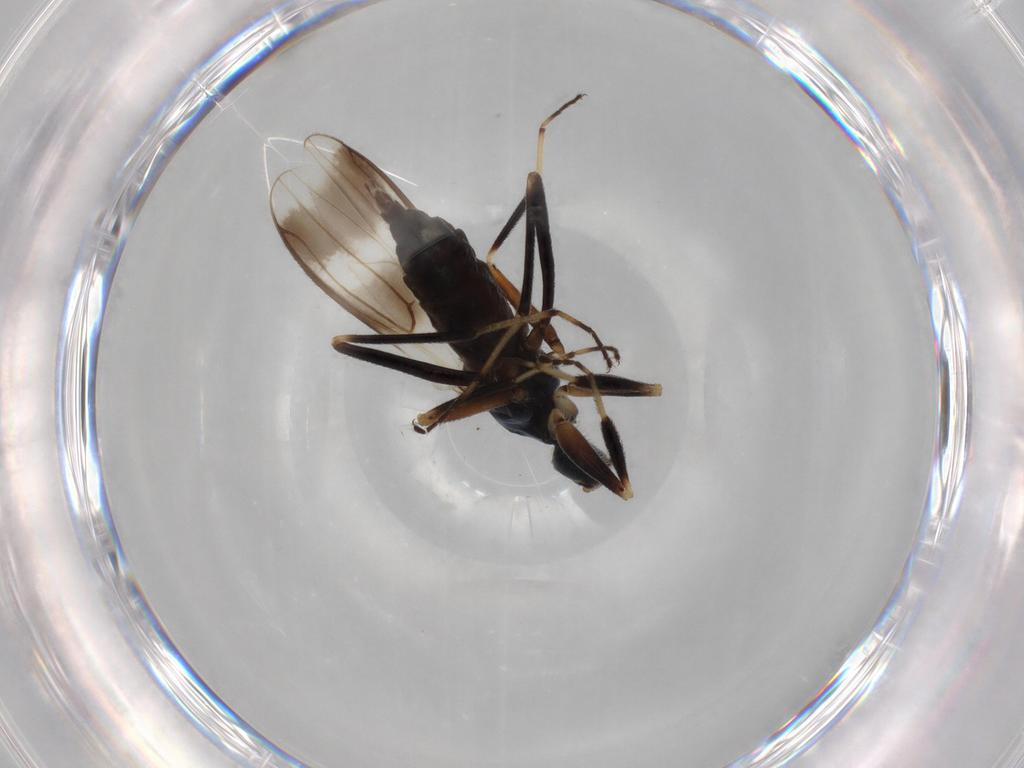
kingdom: Animalia
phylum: Arthropoda
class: Insecta
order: Diptera
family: Hybotidae
